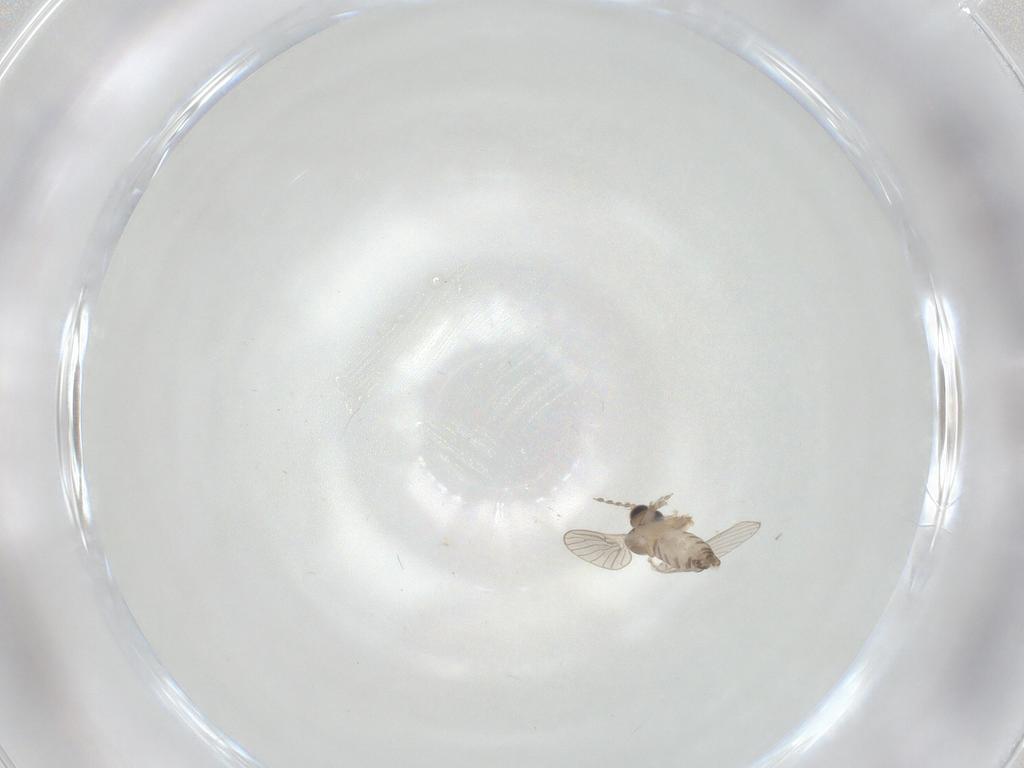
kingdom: Animalia
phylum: Arthropoda
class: Insecta
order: Diptera
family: Psychodidae
